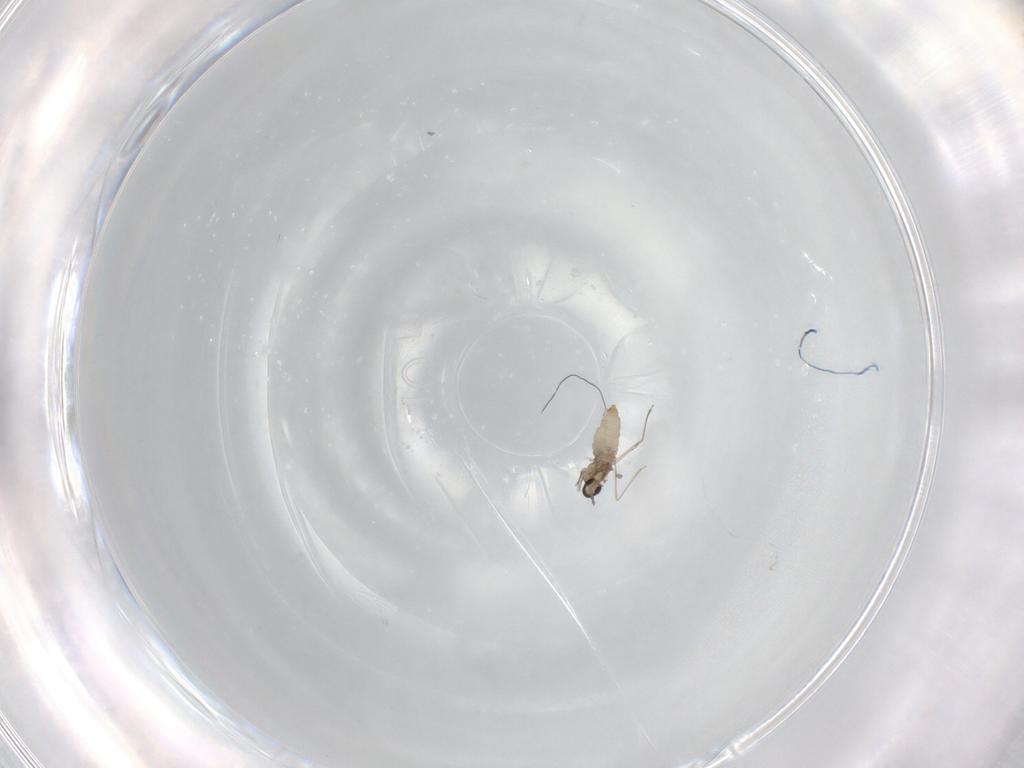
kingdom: Animalia
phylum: Arthropoda
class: Insecta
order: Diptera
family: Cecidomyiidae
